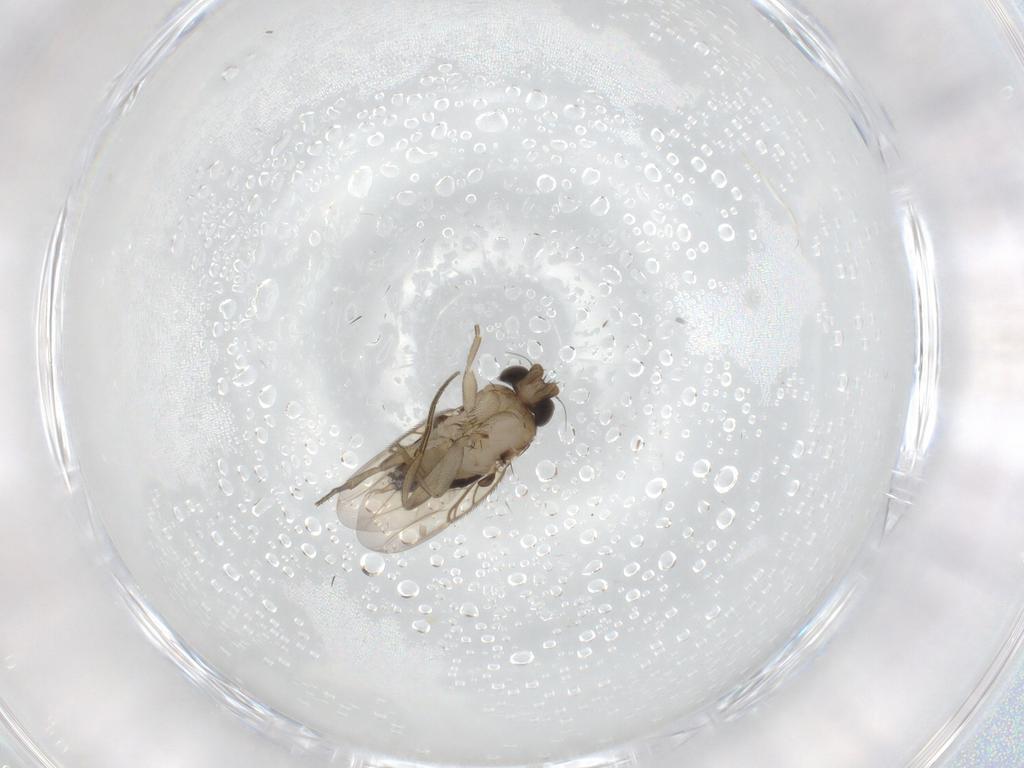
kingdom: Animalia
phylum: Arthropoda
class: Insecta
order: Diptera
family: Phoridae
